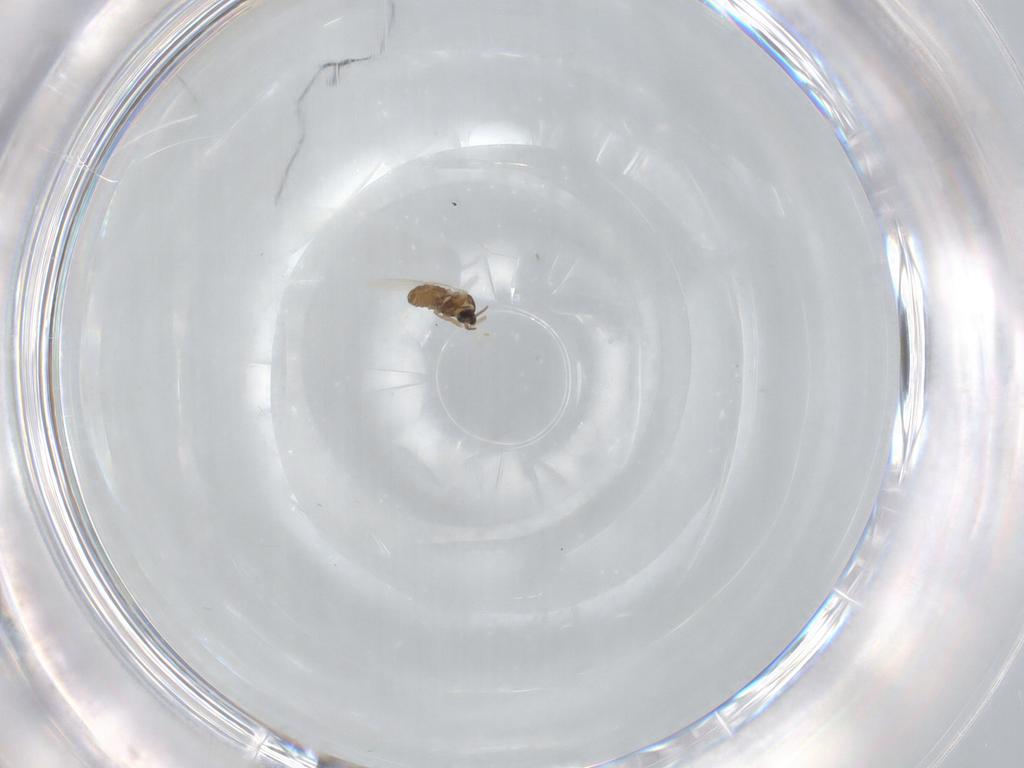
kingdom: Animalia
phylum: Arthropoda
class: Insecta
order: Diptera
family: Cecidomyiidae
